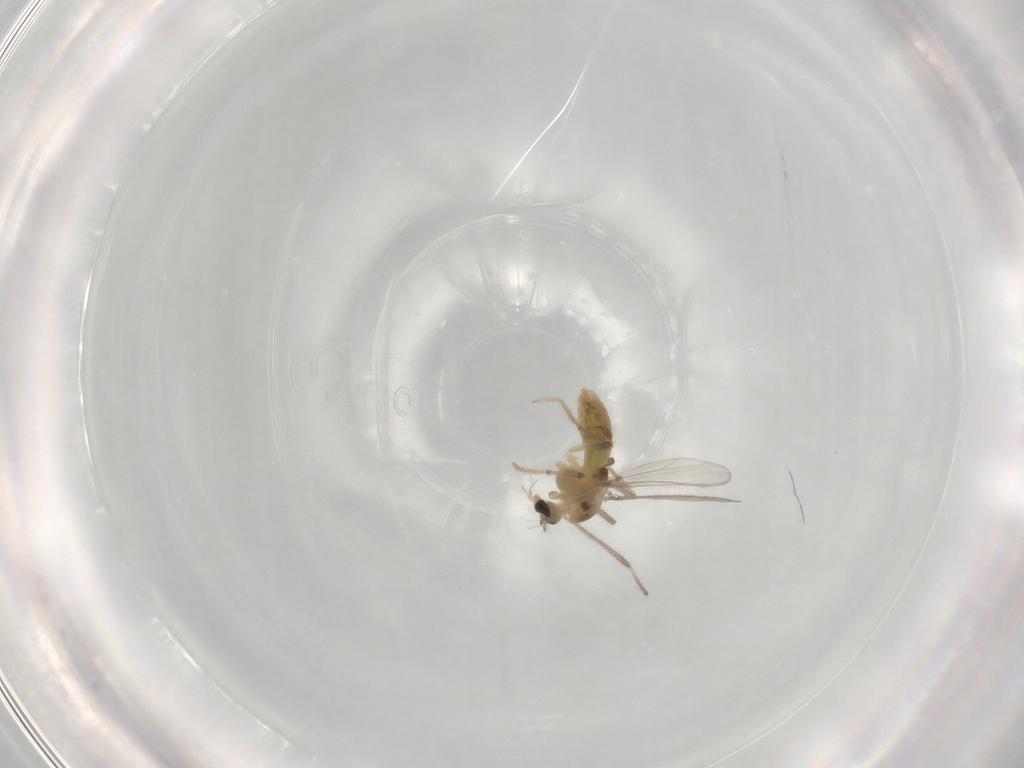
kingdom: Animalia
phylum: Arthropoda
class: Insecta
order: Diptera
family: Chironomidae
